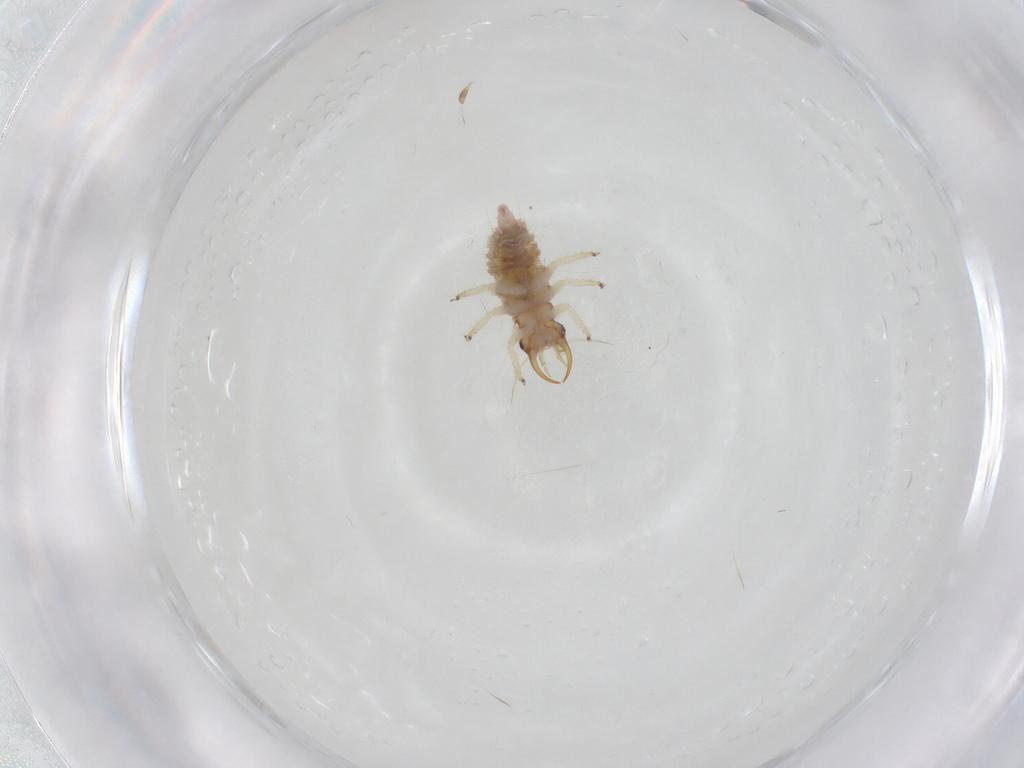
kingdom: Animalia
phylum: Arthropoda
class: Insecta
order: Neuroptera
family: Chrysopidae
